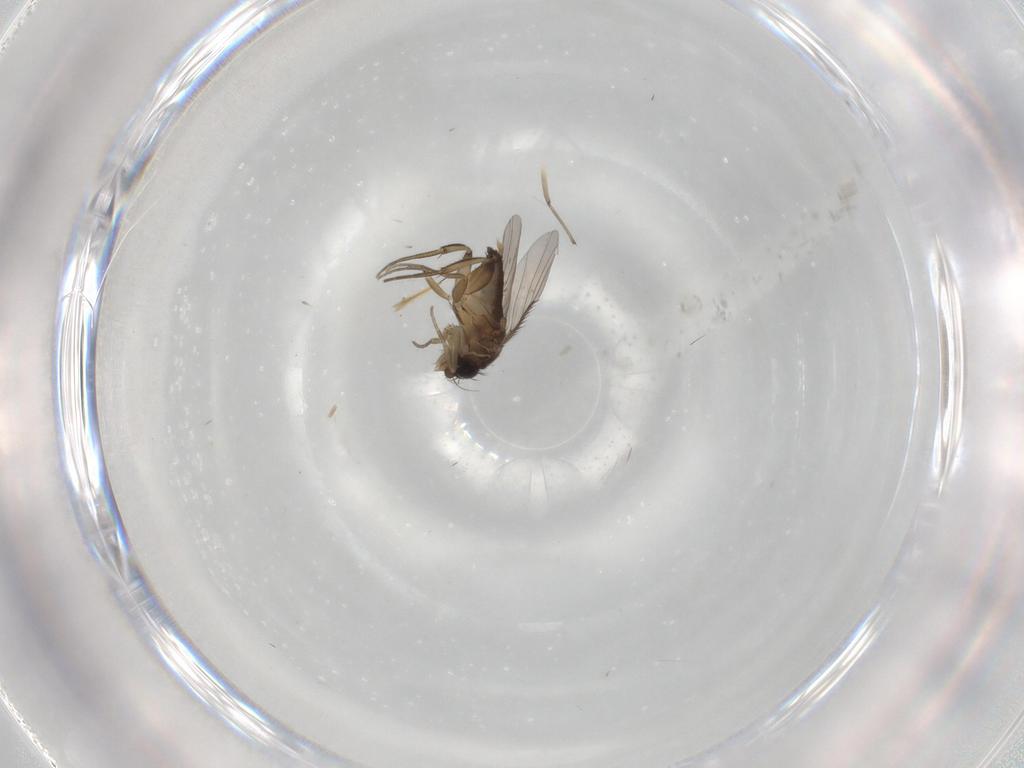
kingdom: Animalia
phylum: Arthropoda
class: Insecta
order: Diptera
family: Phoridae
